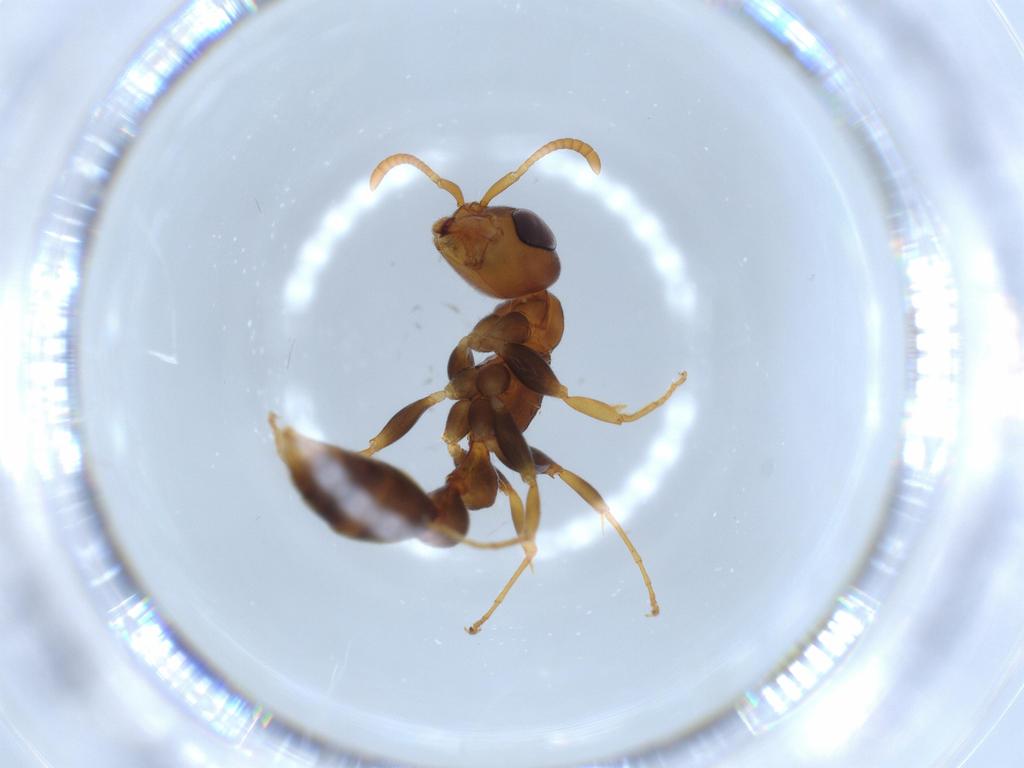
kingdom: Animalia
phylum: Arthropoda
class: Insecta
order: Hymenoptera
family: Formicidae
